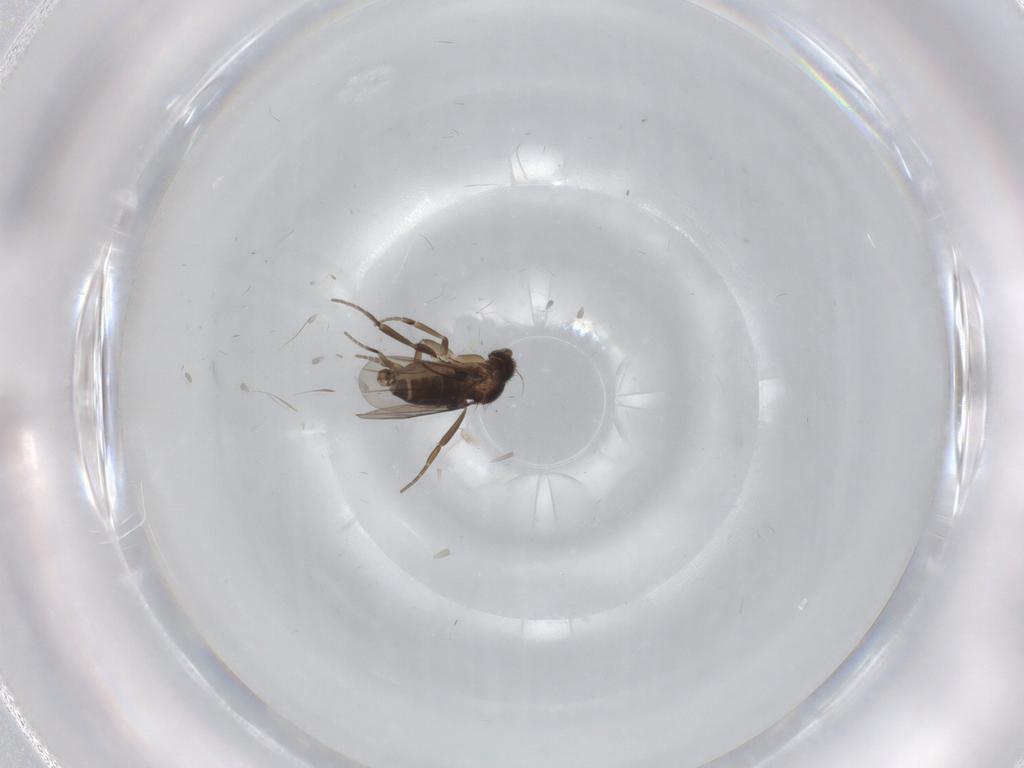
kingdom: Animalia
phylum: Arthropoda
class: Insecta
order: Diptera
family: Phoridae
